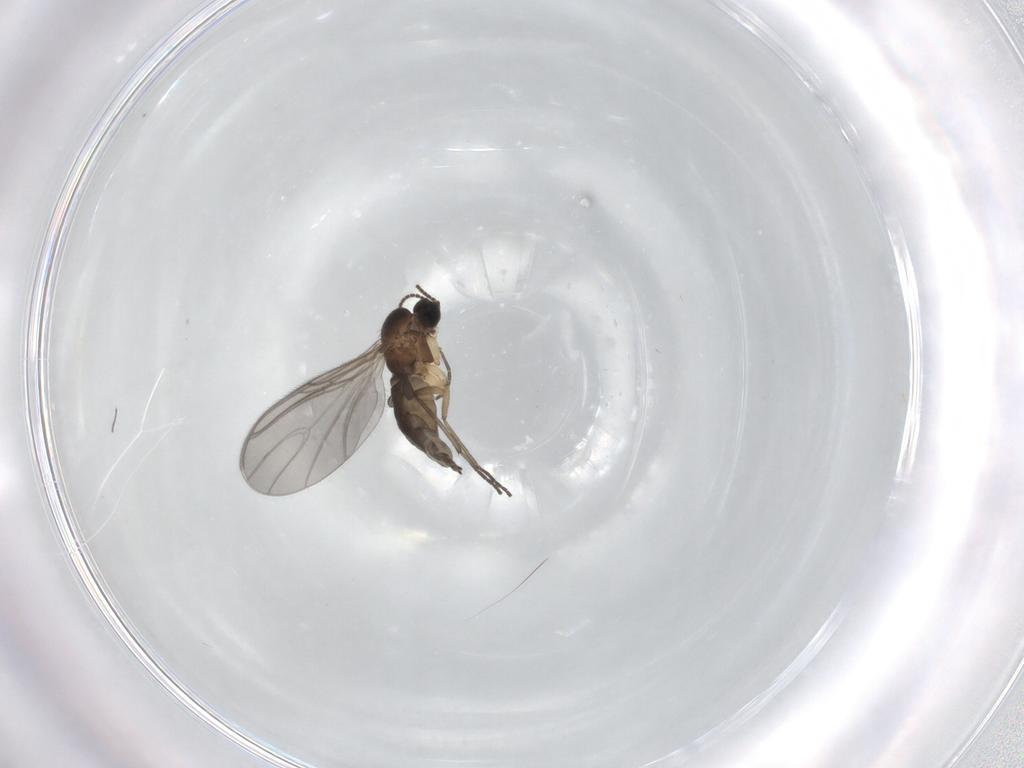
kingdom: Animalia
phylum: Arthropoda
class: Insecta
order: Diptera
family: Sciaridae
